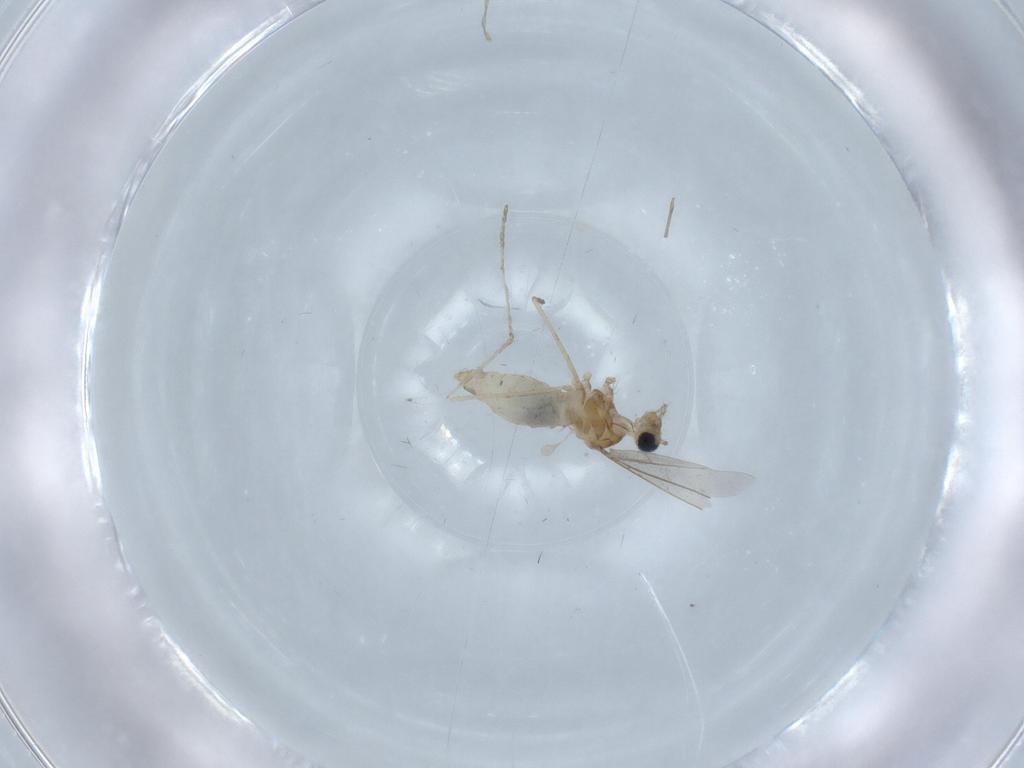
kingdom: Animalia
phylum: Arthropoda
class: Insecta
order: Diptera
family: Cecidomyiidae
